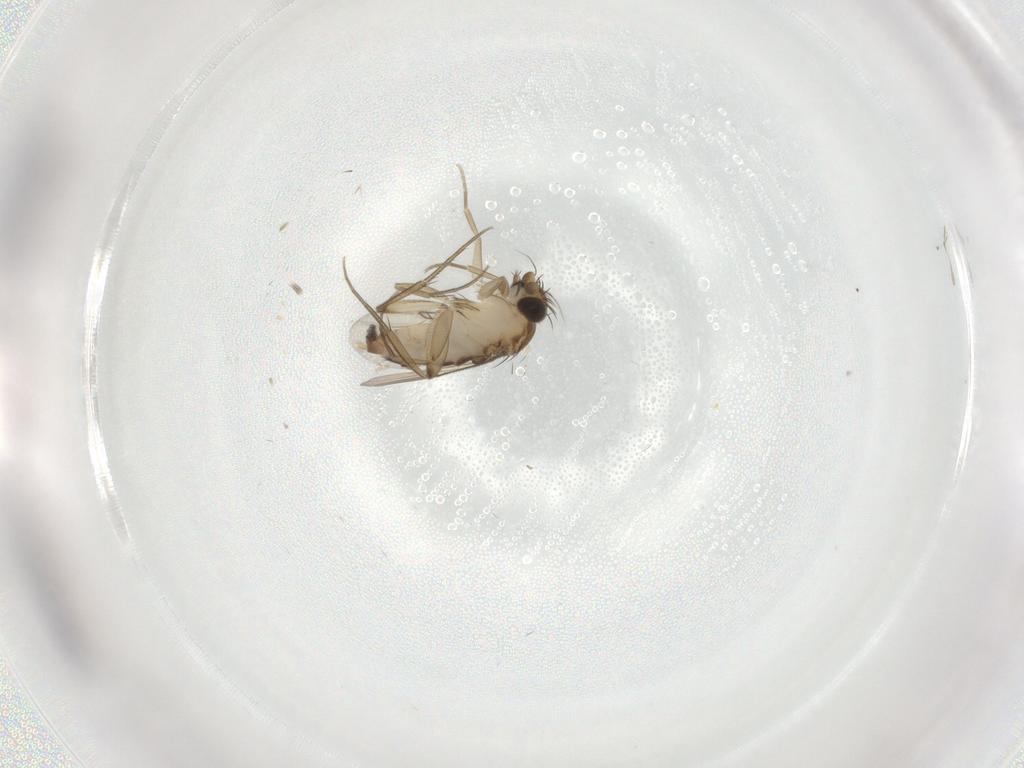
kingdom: Animalia
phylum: Arthropoda
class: Insecta
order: Diptera
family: Phoridae
